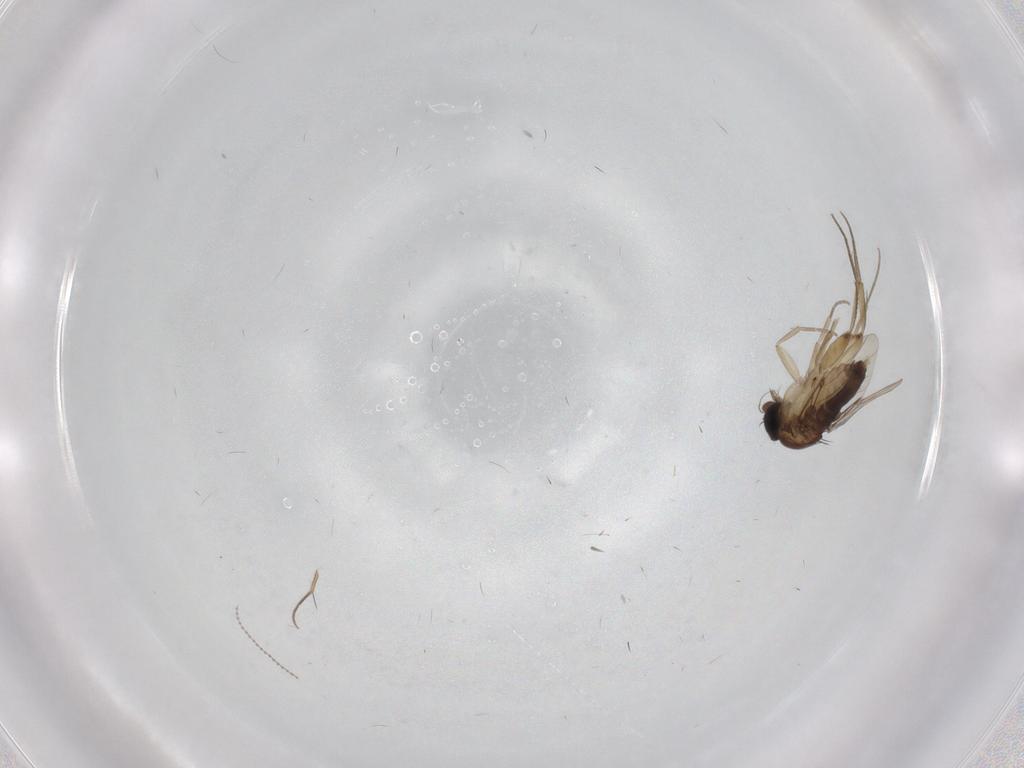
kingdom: Animalia
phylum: Arthropoda
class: Insecta
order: Diptera
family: Phoridae
